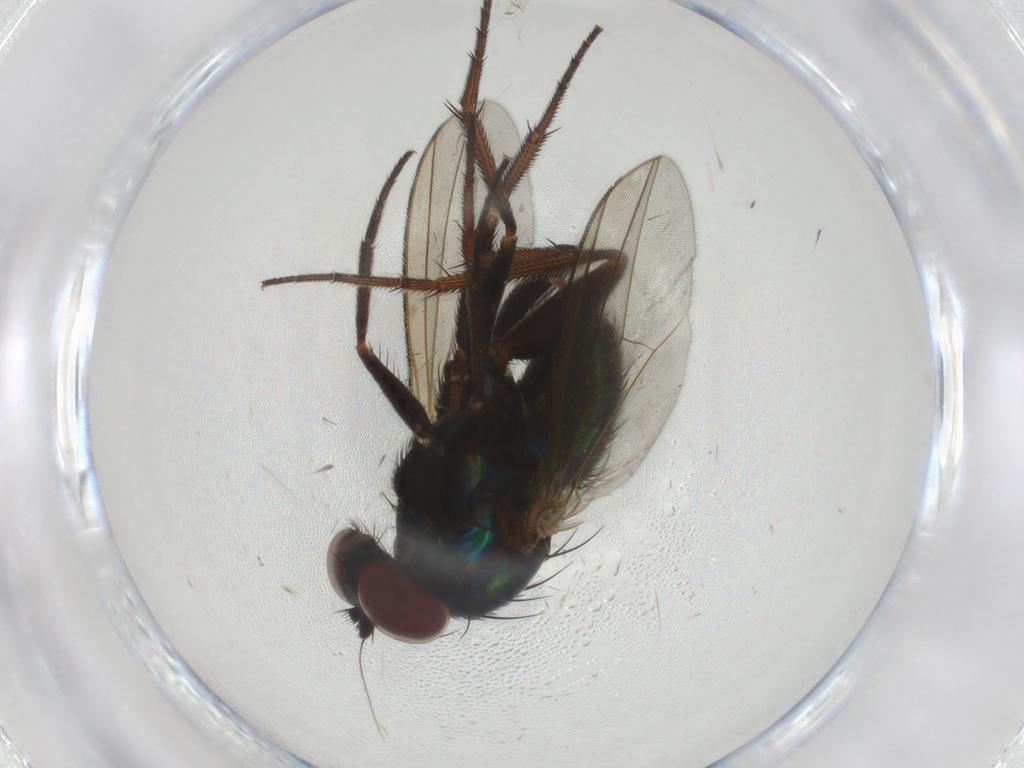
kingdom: Animalia
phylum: Arthropoda
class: Insecta
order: Diptera
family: Dolichopodidae
